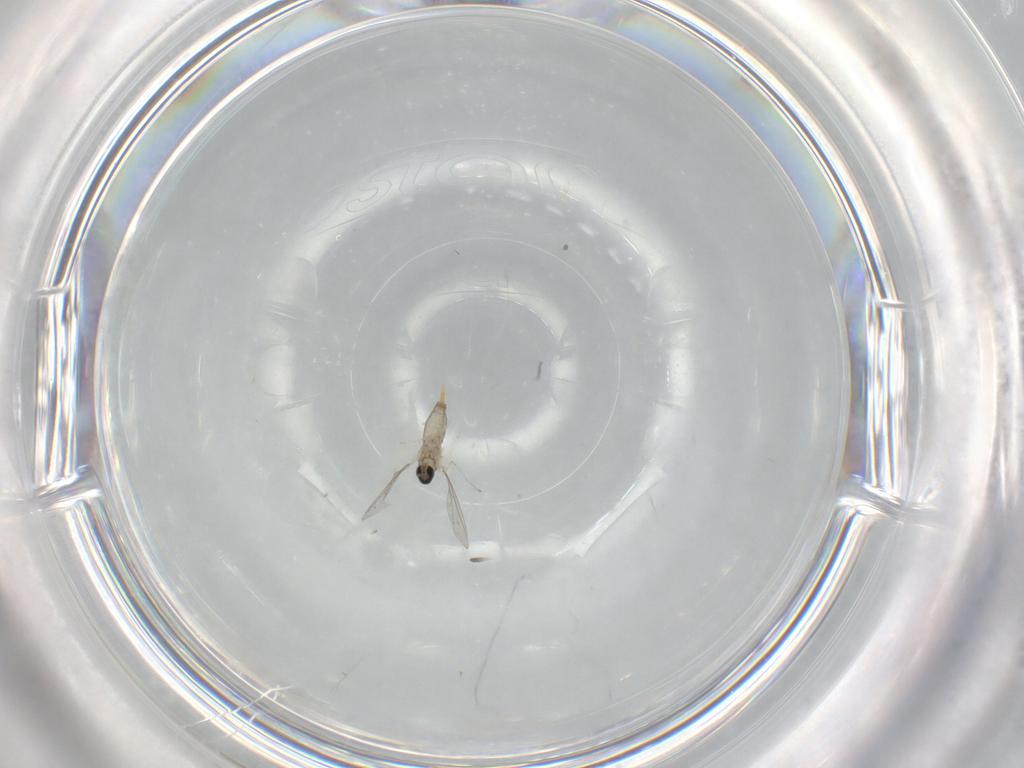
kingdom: Animalia
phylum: Arthropoda
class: Insecta
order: Diptera
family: Cecidomyiidae
